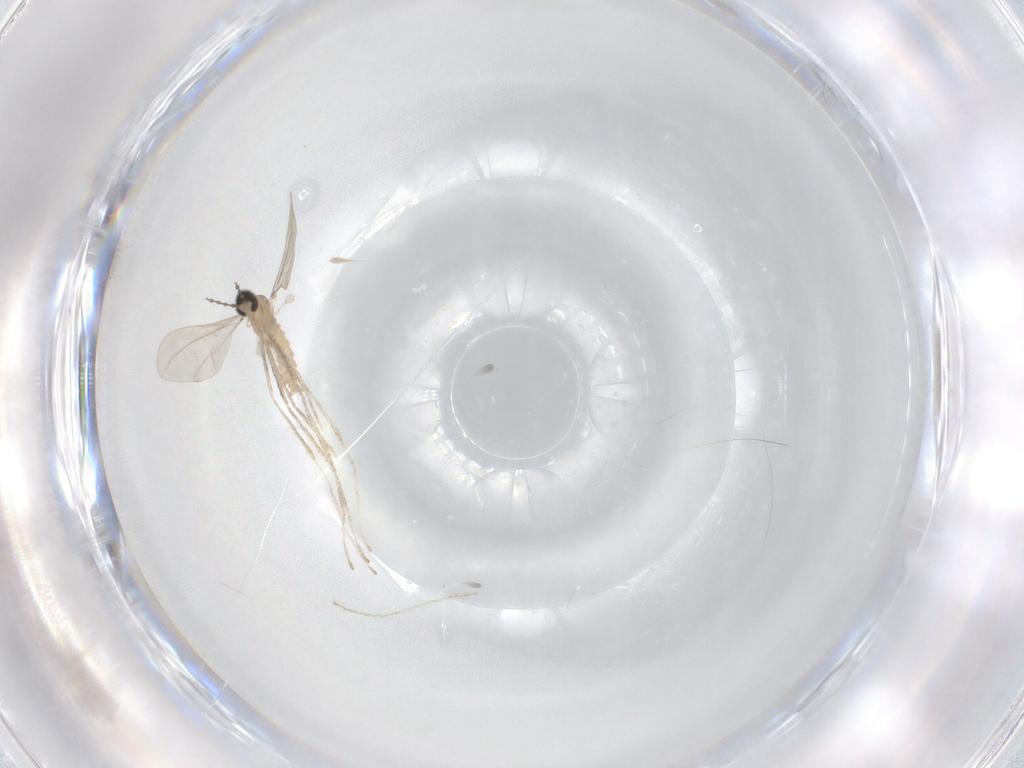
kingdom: Animalia
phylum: Arthropoda
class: Insecta
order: Diptera
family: Cecidomyiidae
